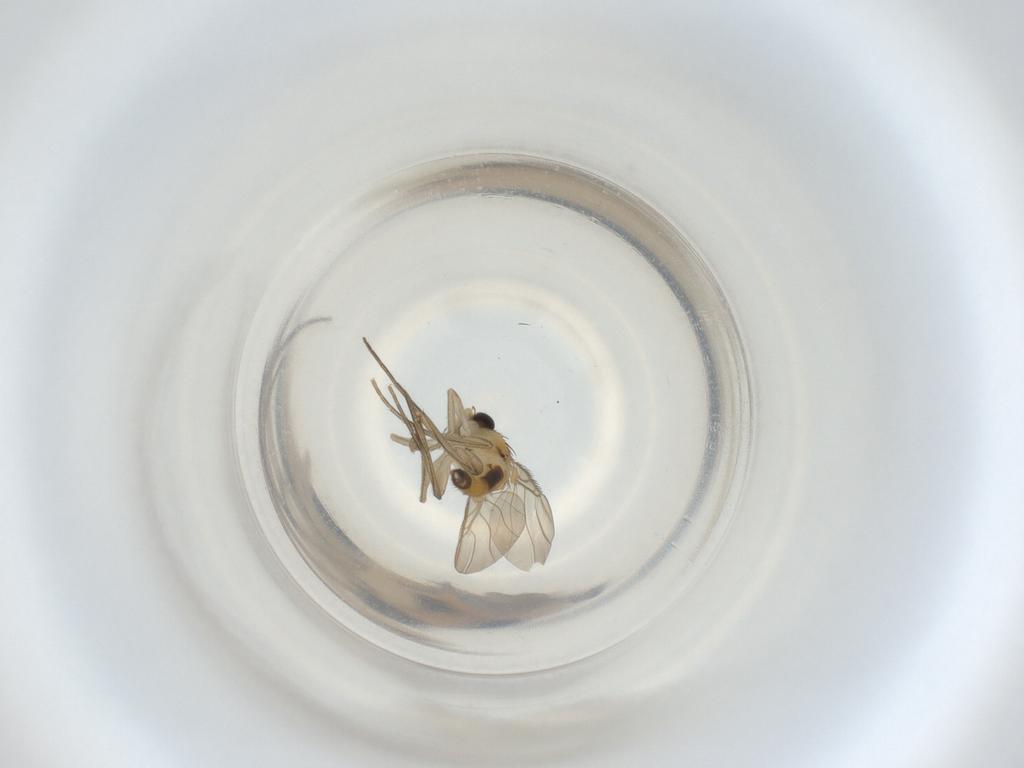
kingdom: Animalia
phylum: Arthropoda
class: Insecta
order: Diptera
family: Phoridae
